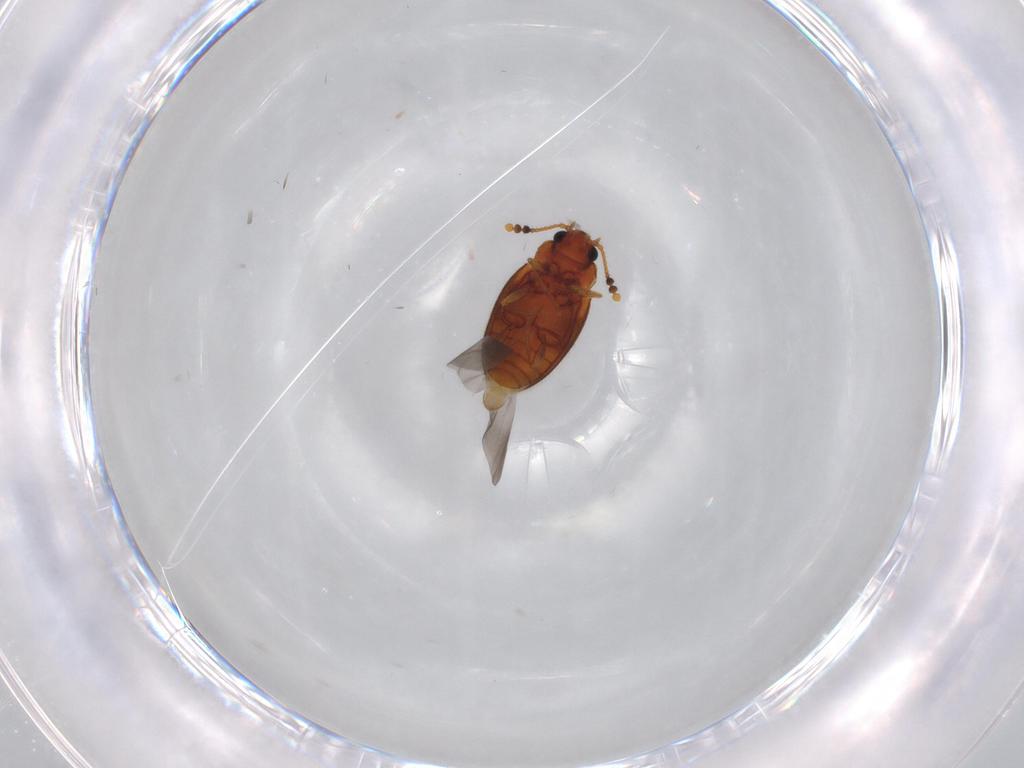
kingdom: Animalia
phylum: Arthropoda
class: Insecta
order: Coleoptera
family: Erotylidae
